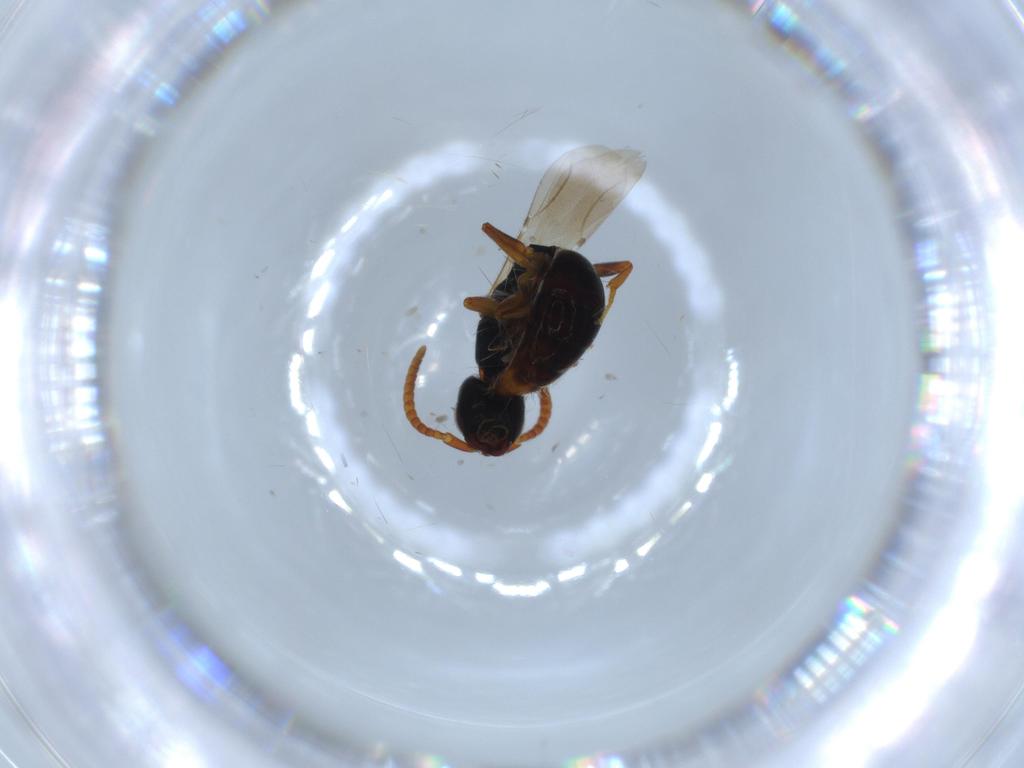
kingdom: Animalia
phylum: Arthropoda
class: Insecta
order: Hymenoptera
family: Bethylidae
